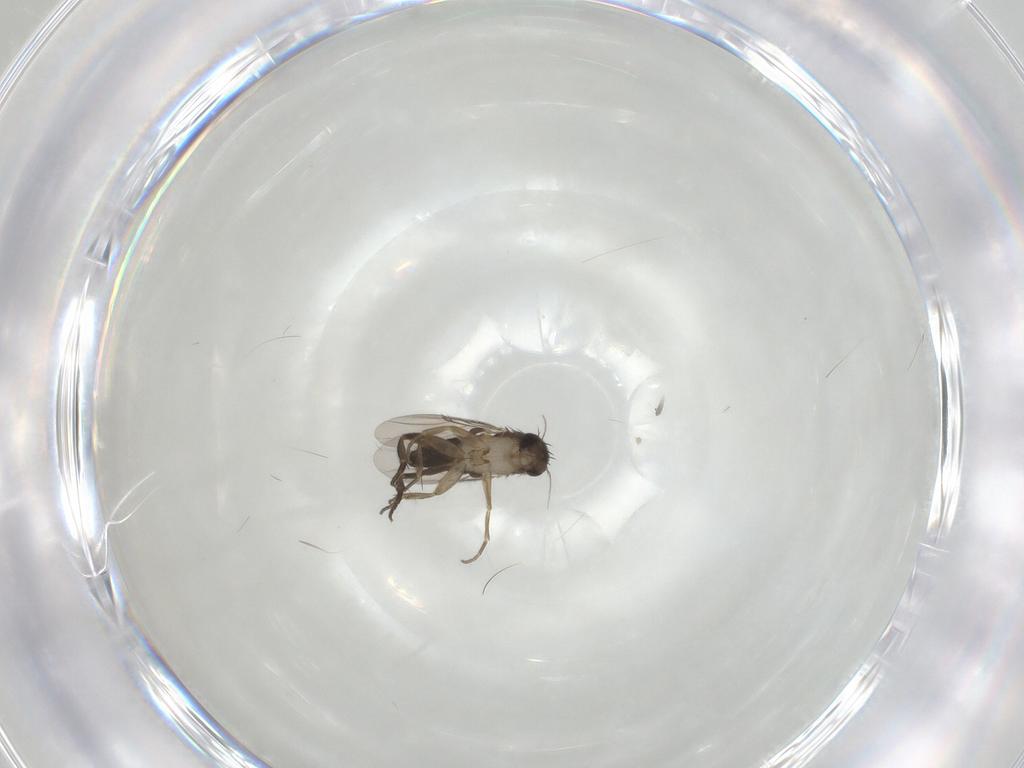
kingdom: Animalia
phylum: Arthropoda
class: Insecta
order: Diptera
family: Phoridae
